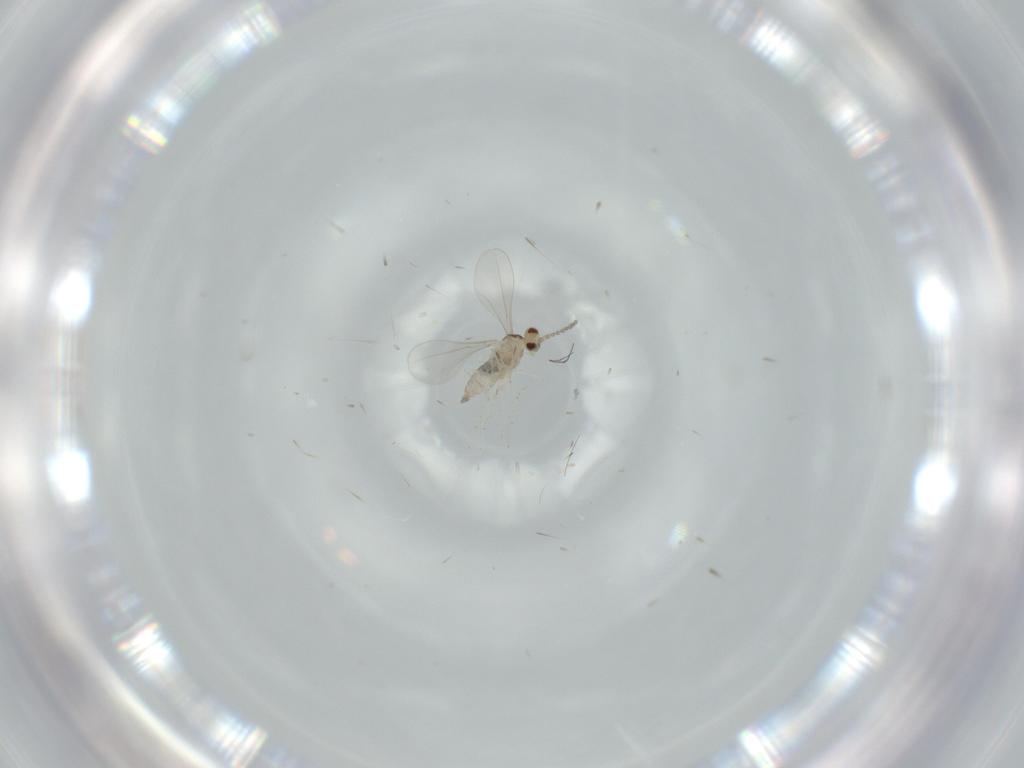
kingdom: Animalia
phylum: Arthropoda
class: Insecta
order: Diptera
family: Cecidomyiidae
